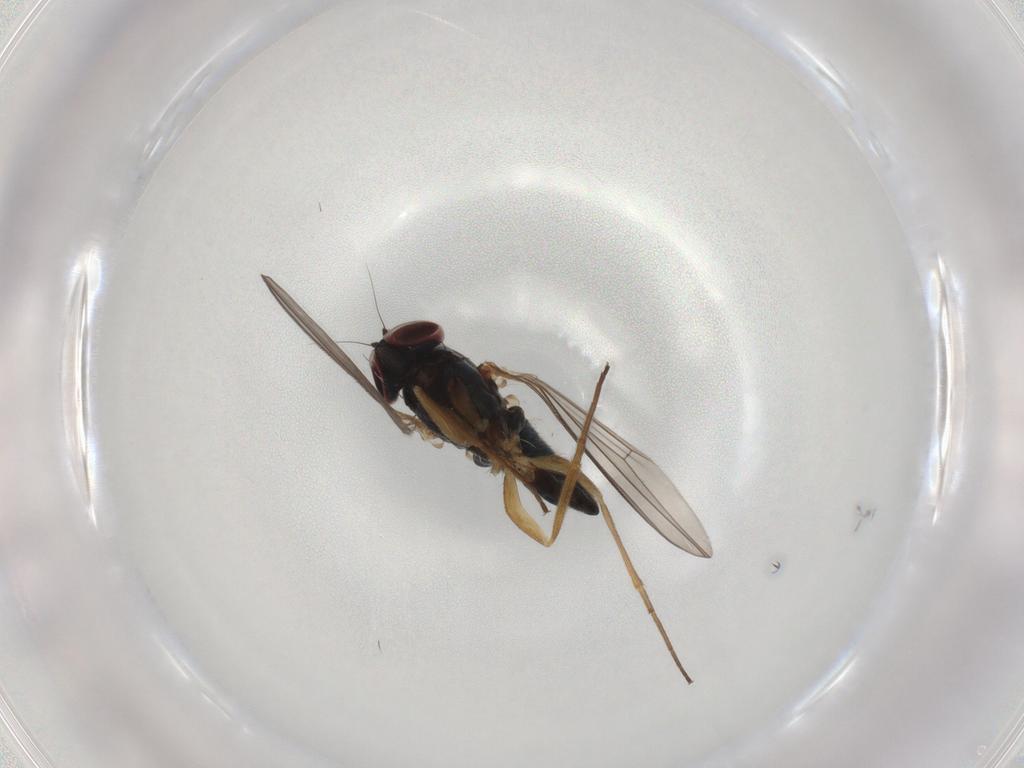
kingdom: Animalia
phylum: Arthropoda
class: Insecta
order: Diptera
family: Dolichopodidae
